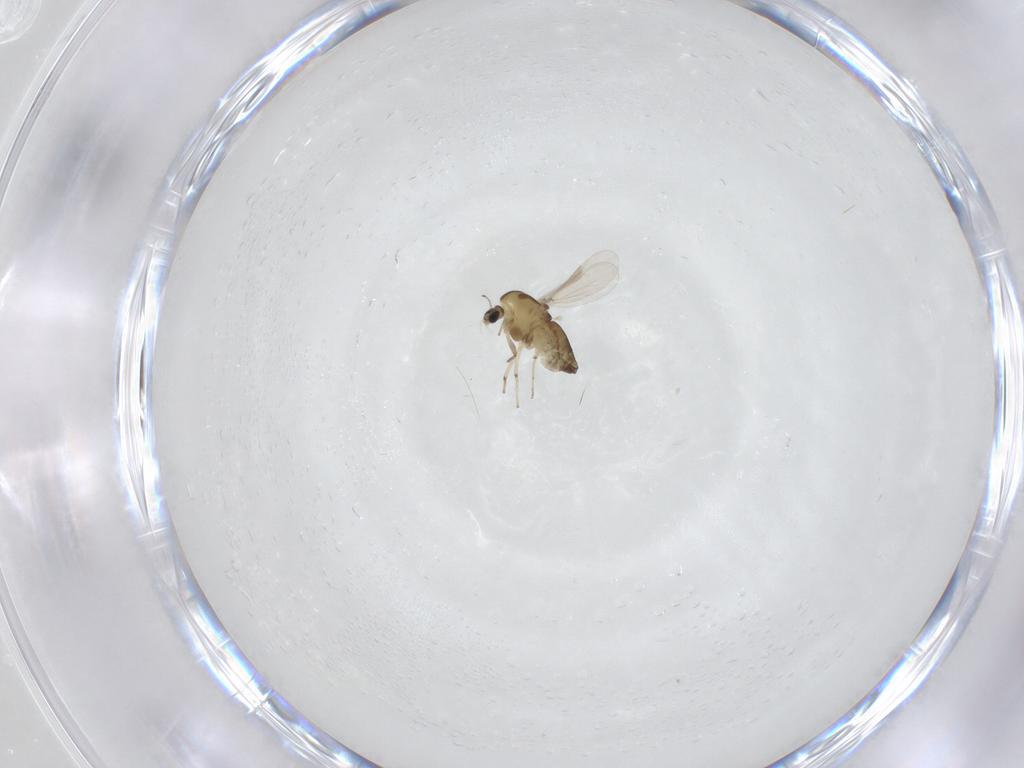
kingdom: Animalia
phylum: Arthropoda
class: Insecta
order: Diptera
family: Chironomidae
